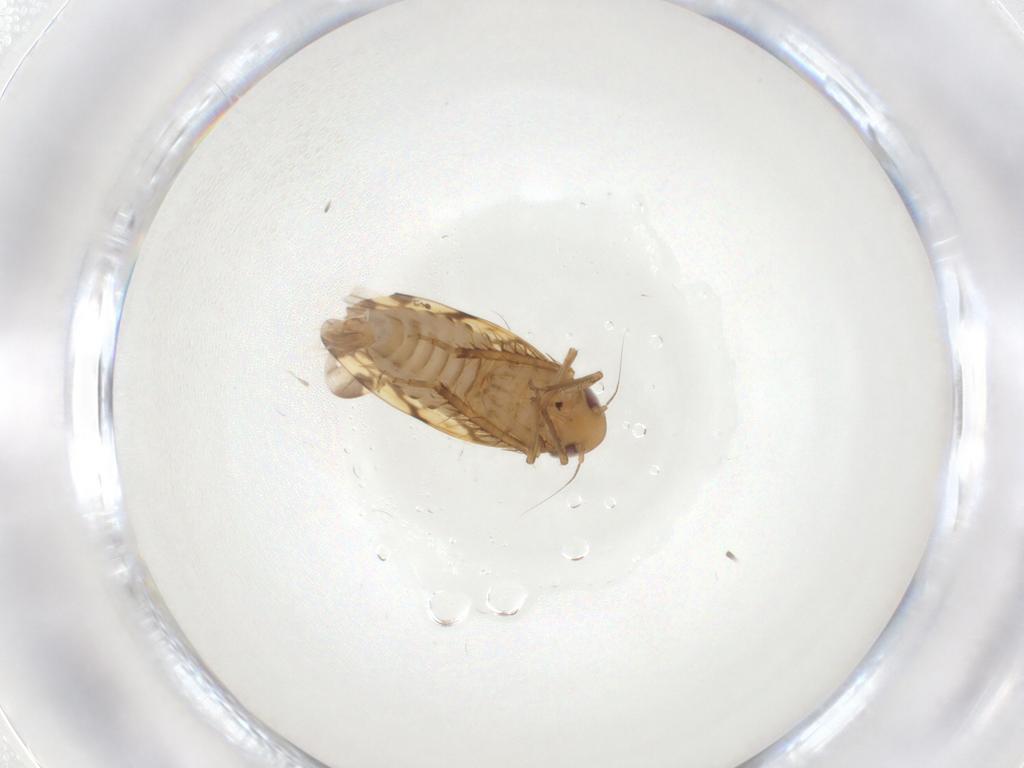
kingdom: Animalia
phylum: Arthropoda
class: Insecta
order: Hemiptera
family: Cicadellidae
